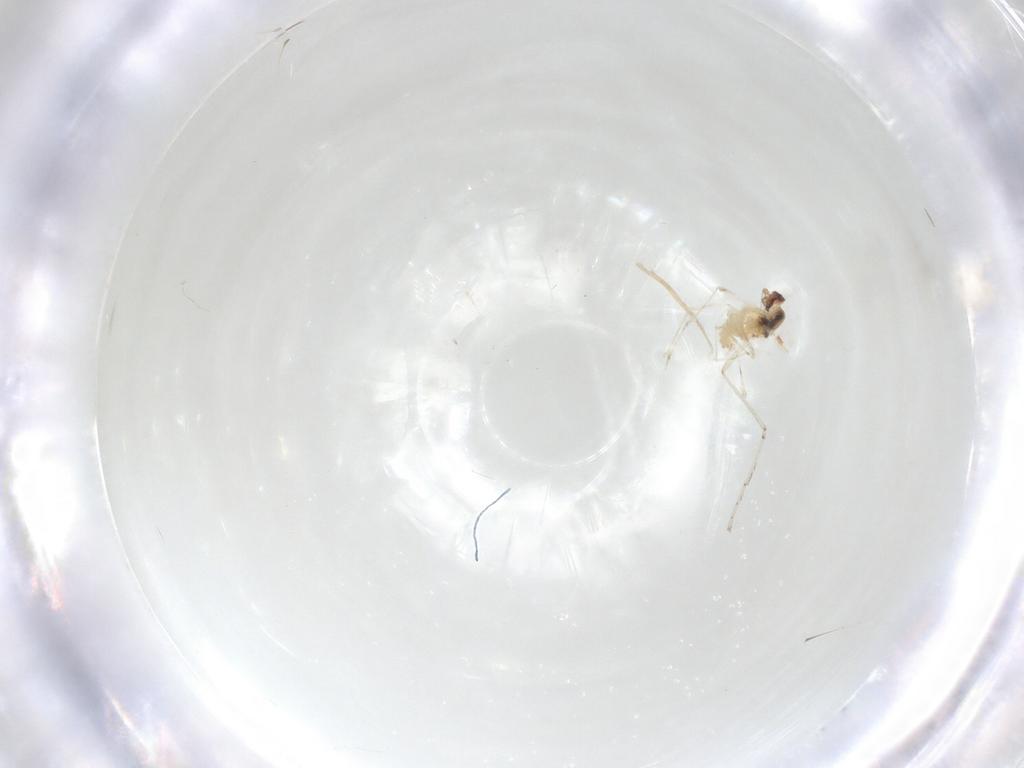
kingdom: Animalia
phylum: Arthropoda
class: Insecta
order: Diptera
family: Cecidomyiidae
